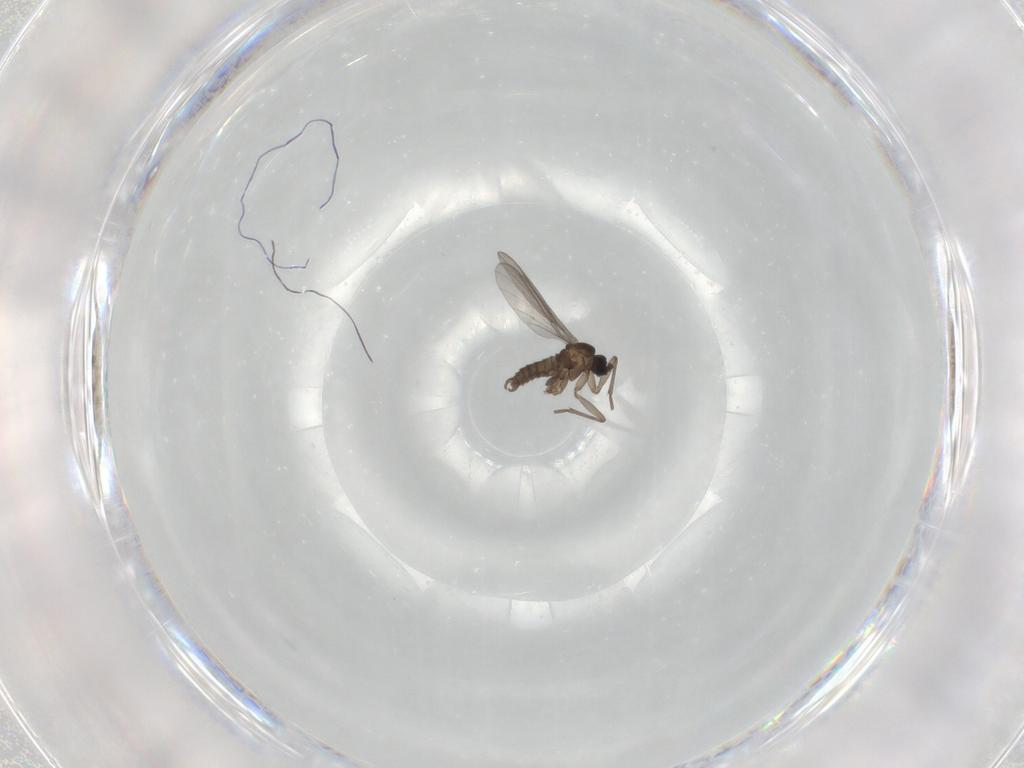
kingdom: Animalia
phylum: Arthropoda
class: Insecta
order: Diptera
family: Sciaridae
